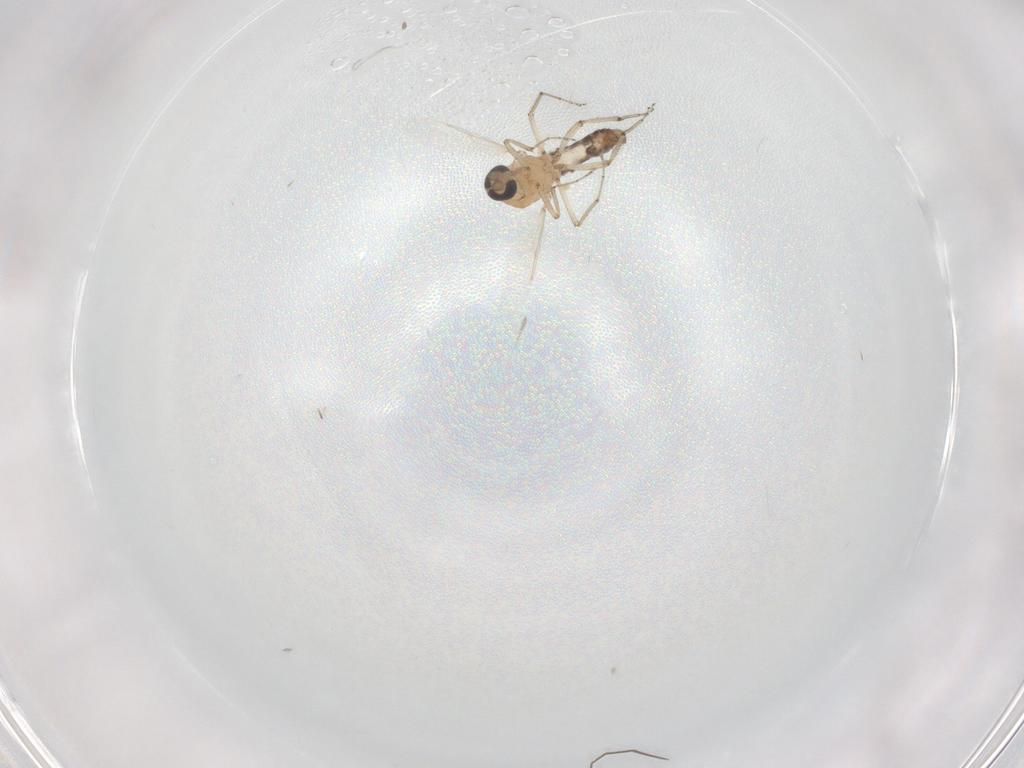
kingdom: Animalia
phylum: Arthropoda
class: Insecta
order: Diptera
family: Ceratopogonidae
